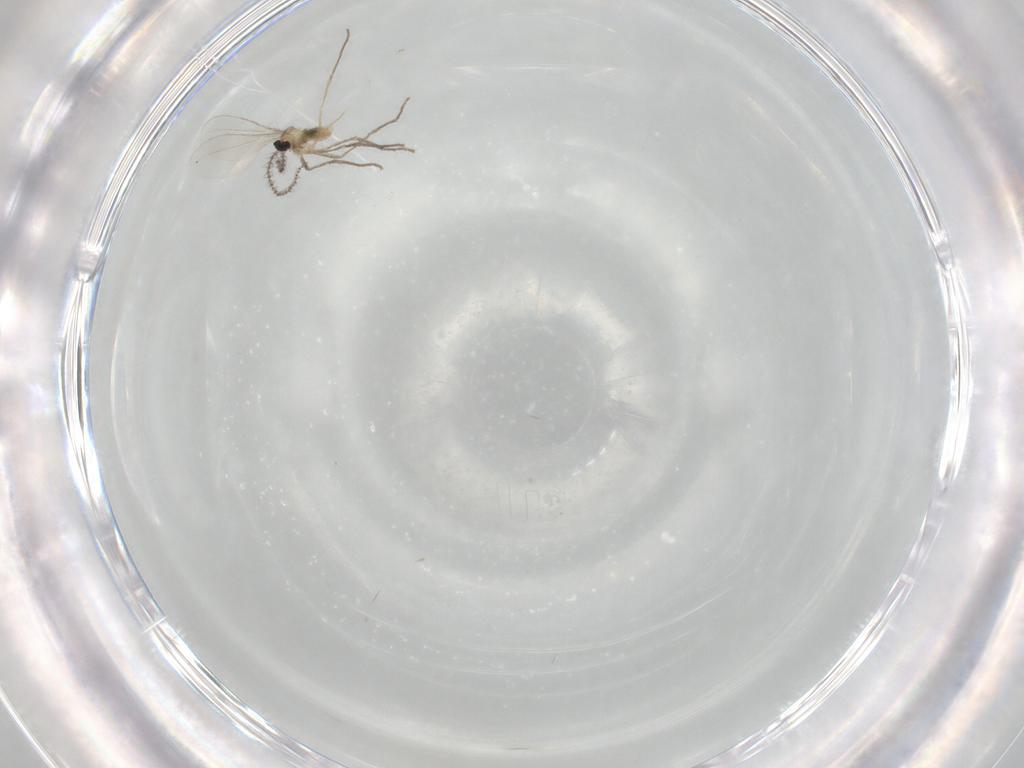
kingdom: Animalia
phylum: Arthropoda
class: Insecta
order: Diptera
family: Cecidomyiidae
